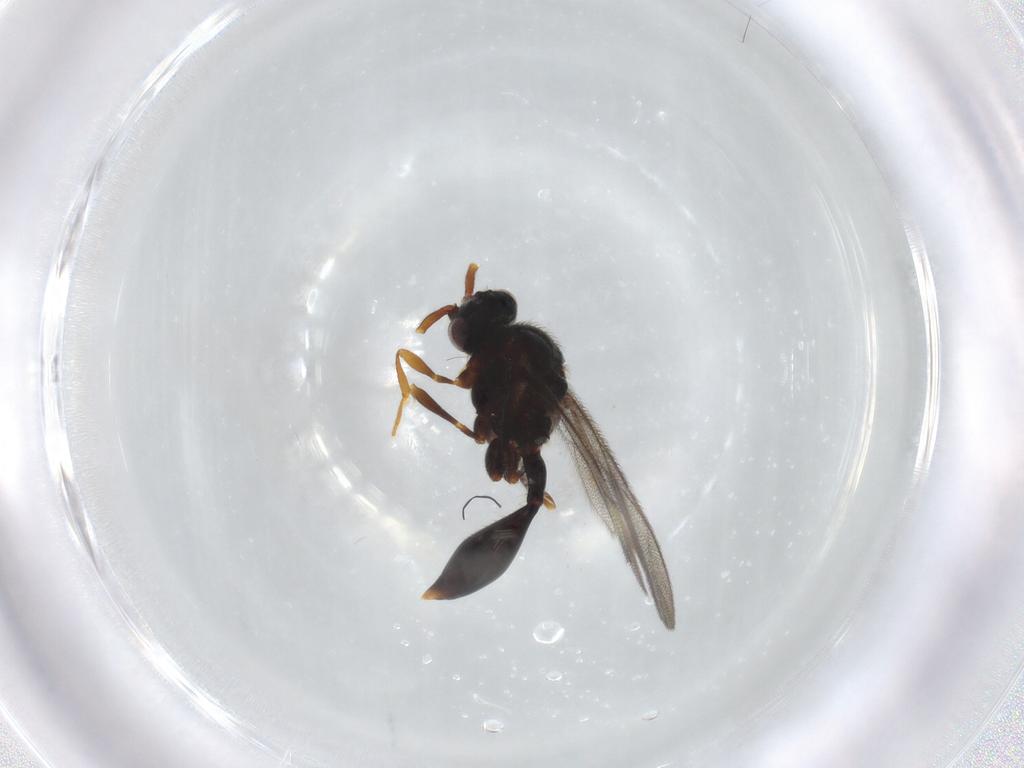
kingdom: Animalia
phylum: Arthropoda
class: Insecta
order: Hymenoptera
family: Diapriidae
